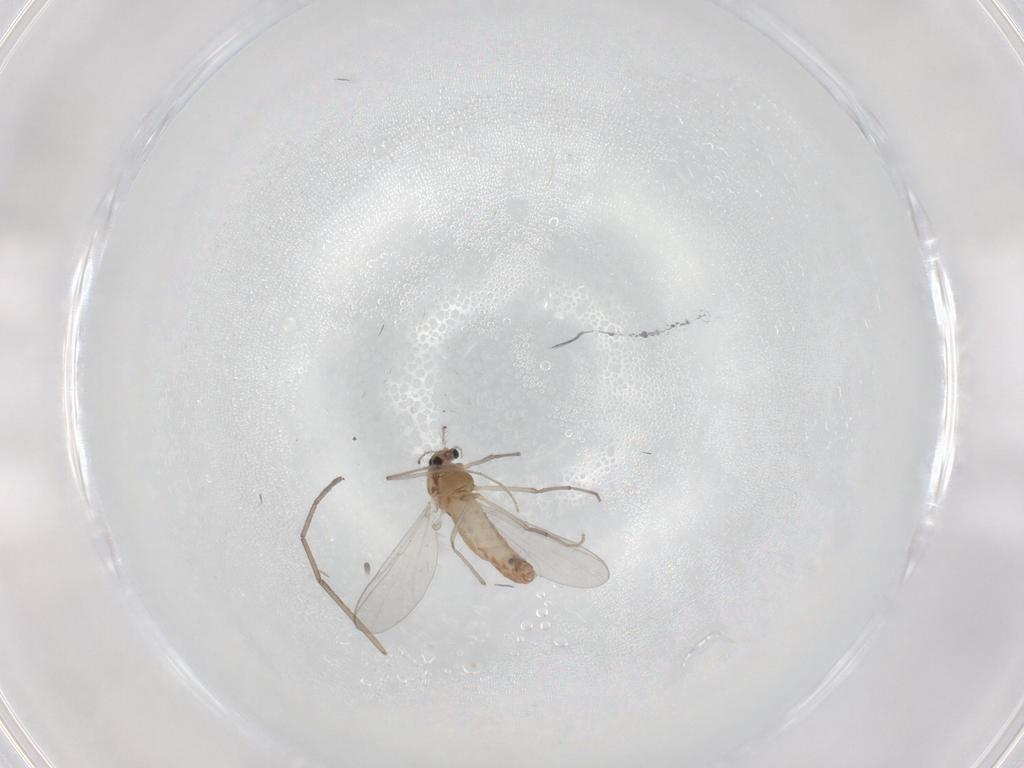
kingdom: Animalia
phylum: Arthropoda
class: Insecta
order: Diptera
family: Chironomidae
